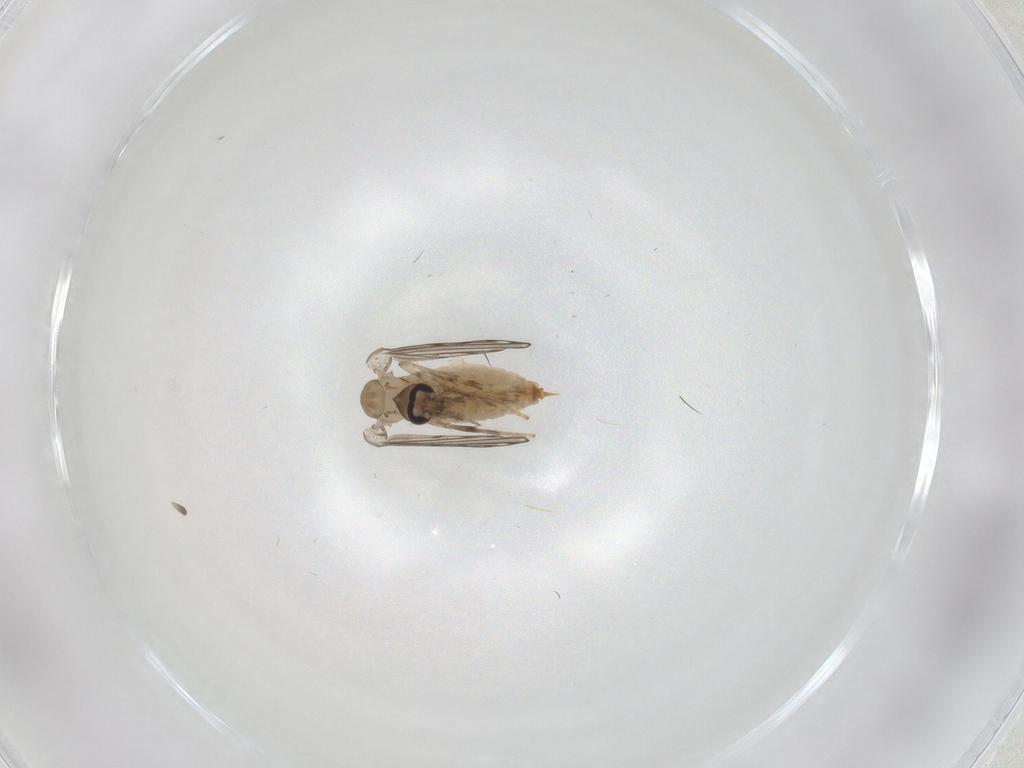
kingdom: Animalia
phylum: Arthropoda
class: Insecta
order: Diptera
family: Psychodidae
